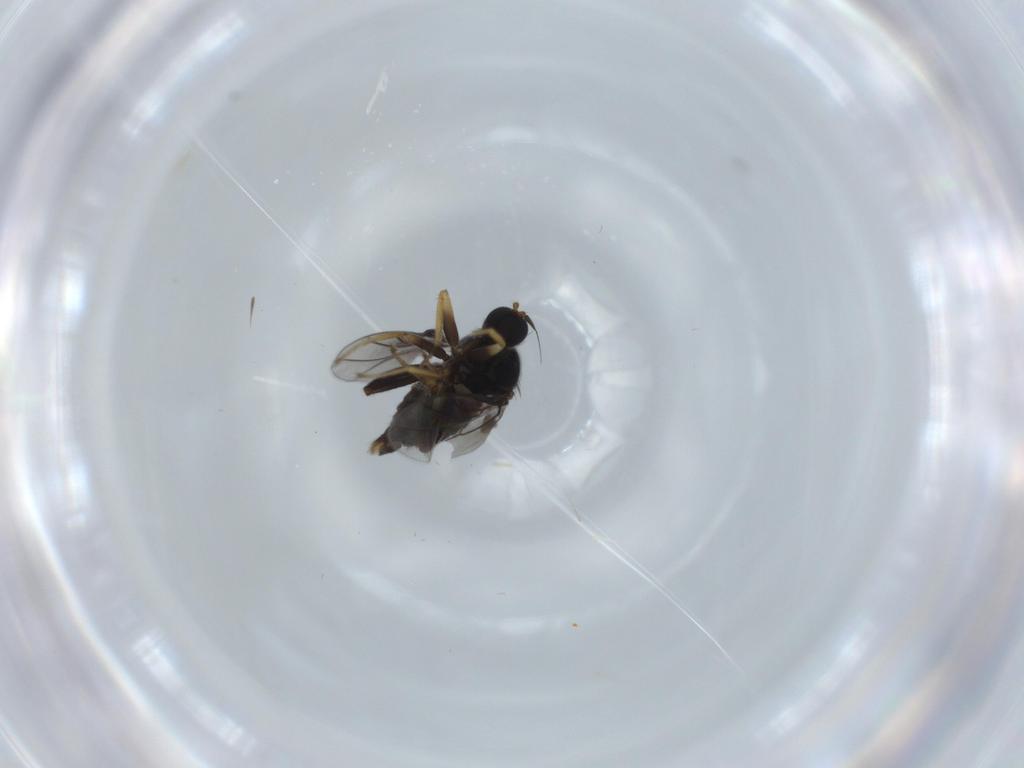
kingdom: Animalia
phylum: Arthropoda
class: Insecta
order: Diptera
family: Hybotidae
